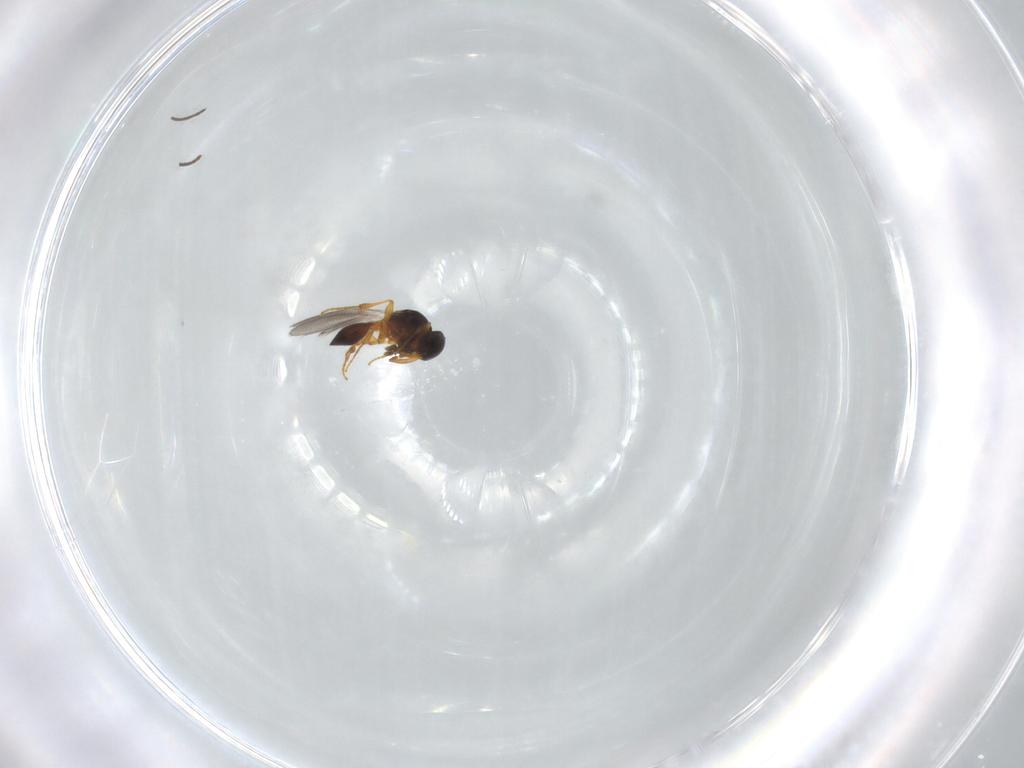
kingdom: Animalia
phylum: Arthropoda
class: Insecta
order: Hymenoptera
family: Platygastridae
